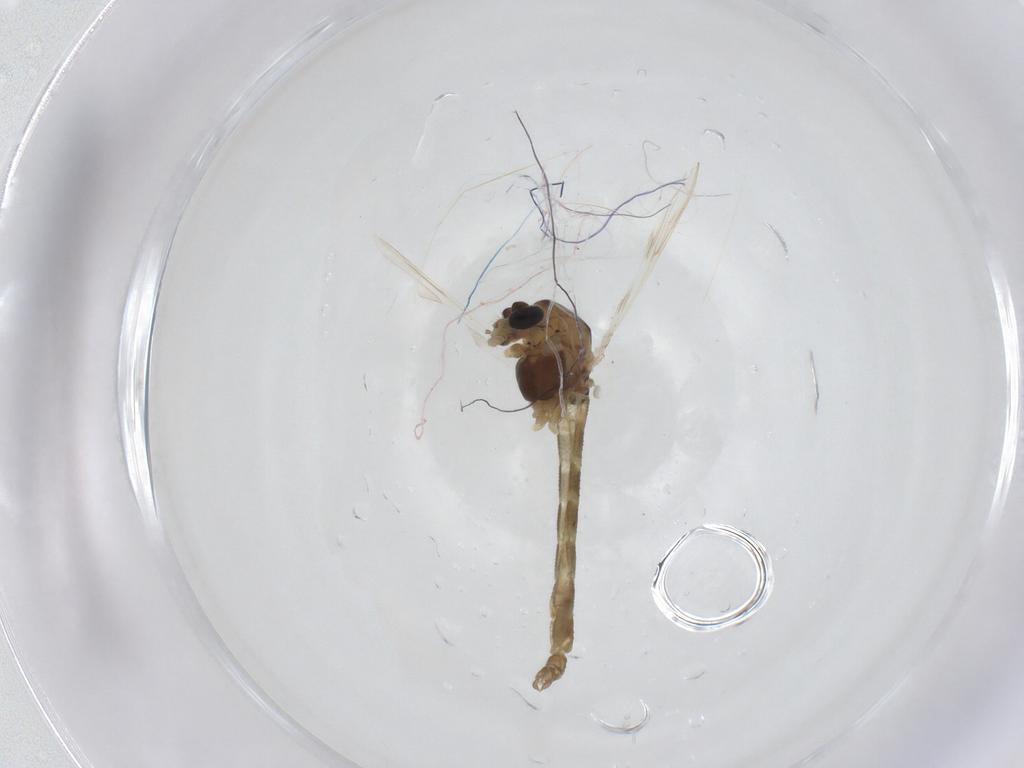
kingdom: Animalia
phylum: Arthropoda
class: Insecta
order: Diptera
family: Chironomidae
